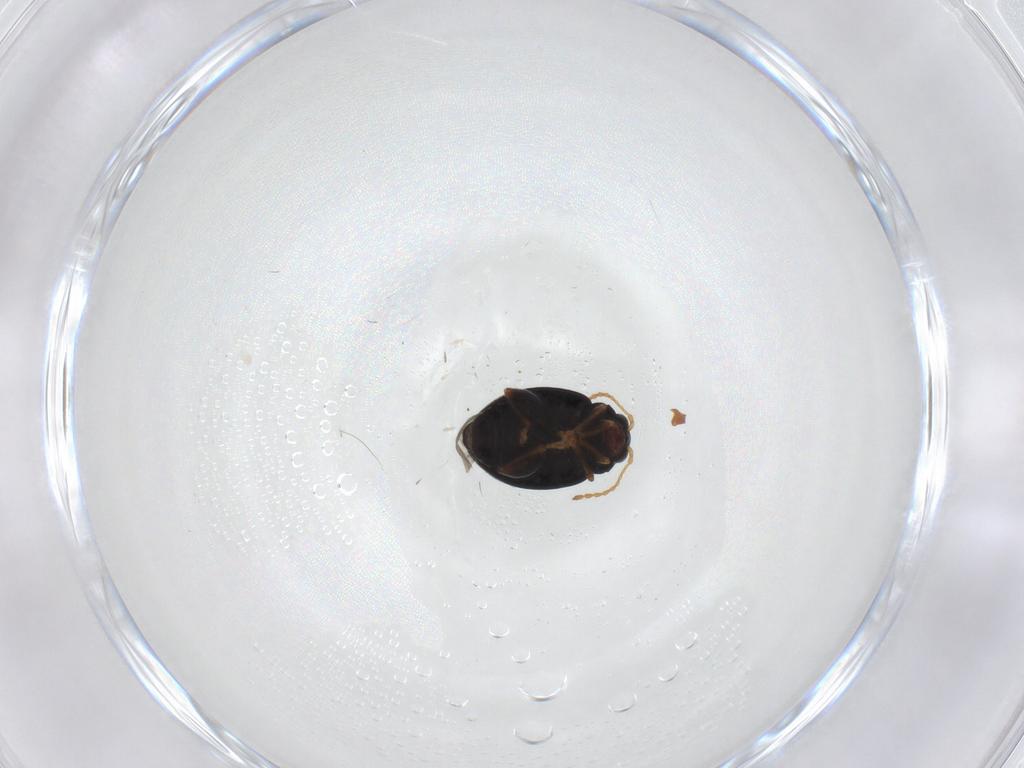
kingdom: Animalia
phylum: Arthropoda
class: Insecta
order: Coleoptera
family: Chrysomelidae
